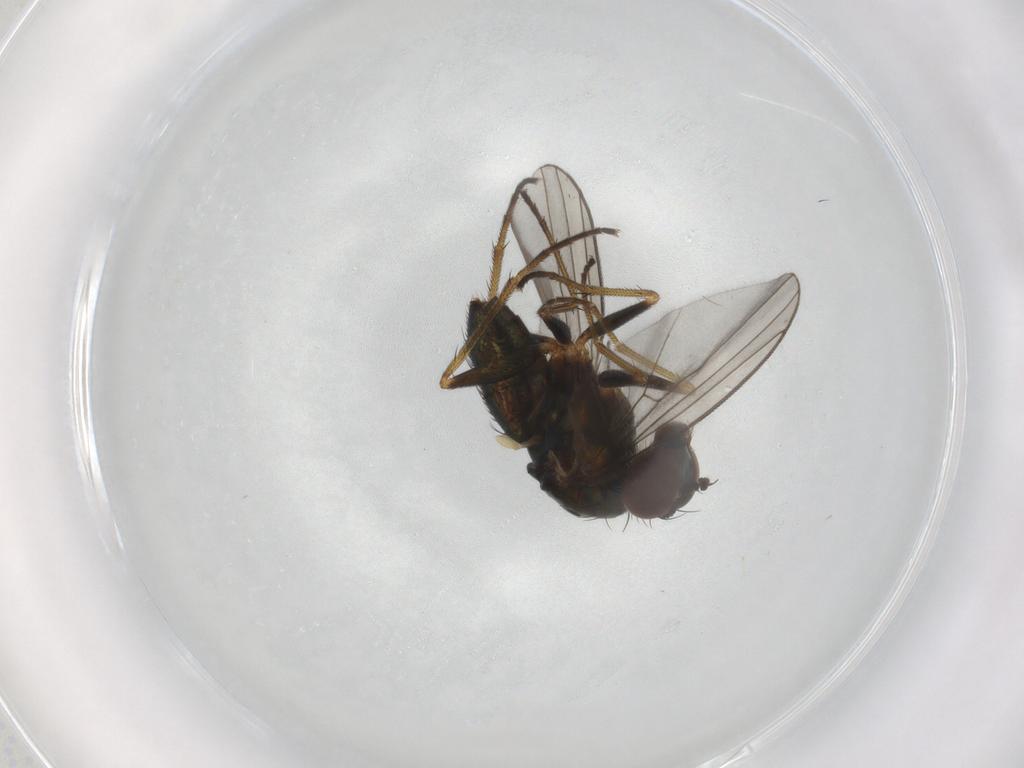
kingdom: Animalia
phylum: Arthropoda
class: Insecta
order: Diptera
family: Dolichopodidae
